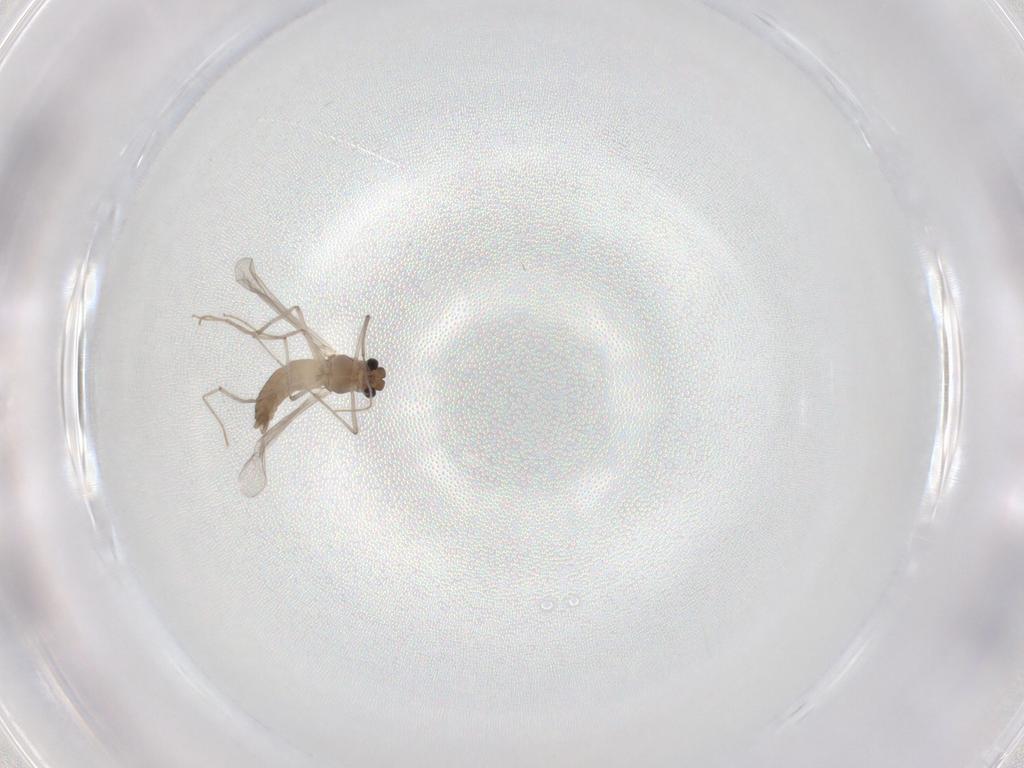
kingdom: Animalia
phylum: Arthropoda
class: Insecta
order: Diptera
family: Chironomidae
